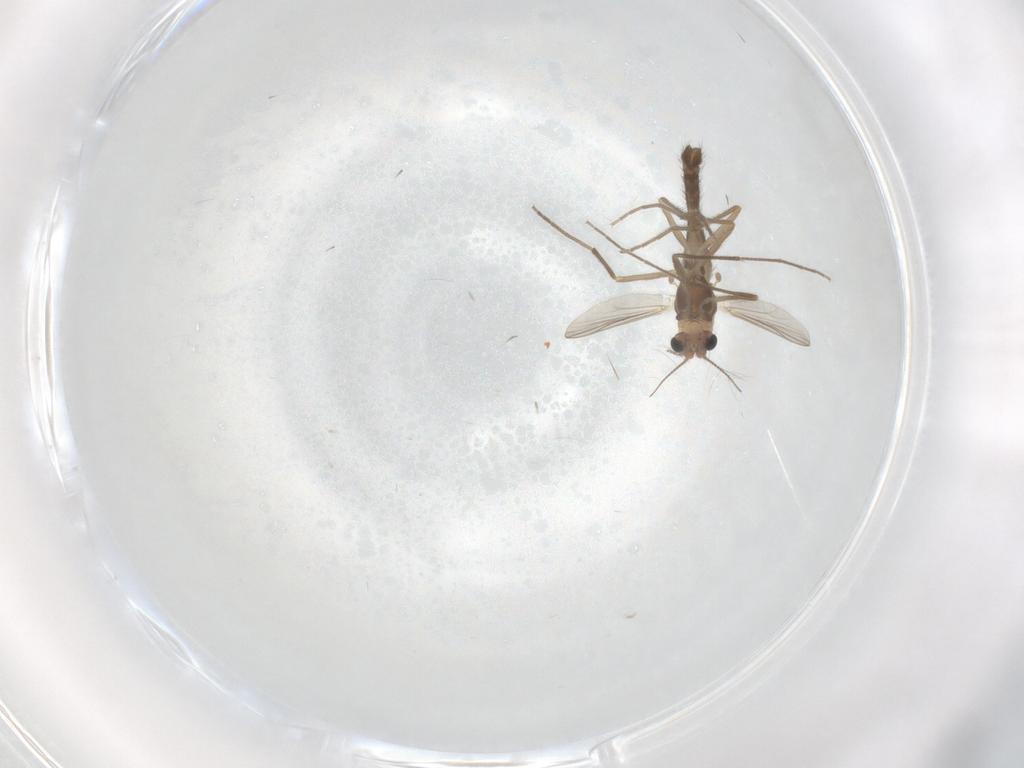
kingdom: Animalia
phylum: Arthropoda
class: Insecta
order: Diptera
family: Chironomidae
